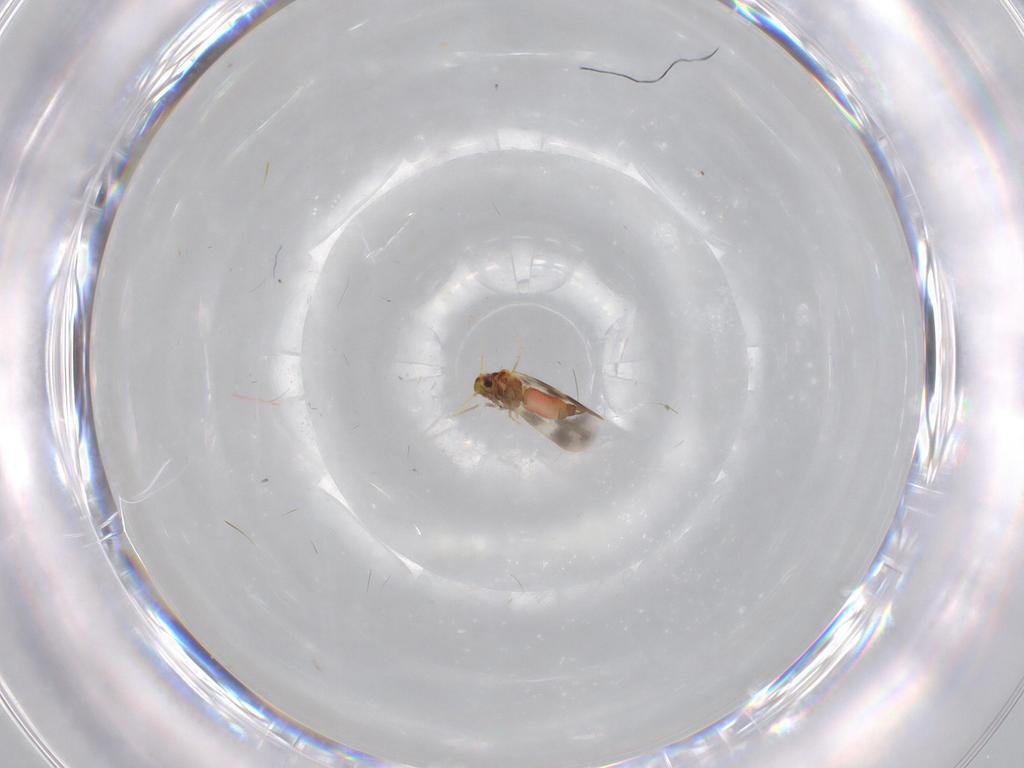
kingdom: Animalia
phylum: Arthropoda
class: Insecta
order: Hemiptera
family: Aleyrodidae
